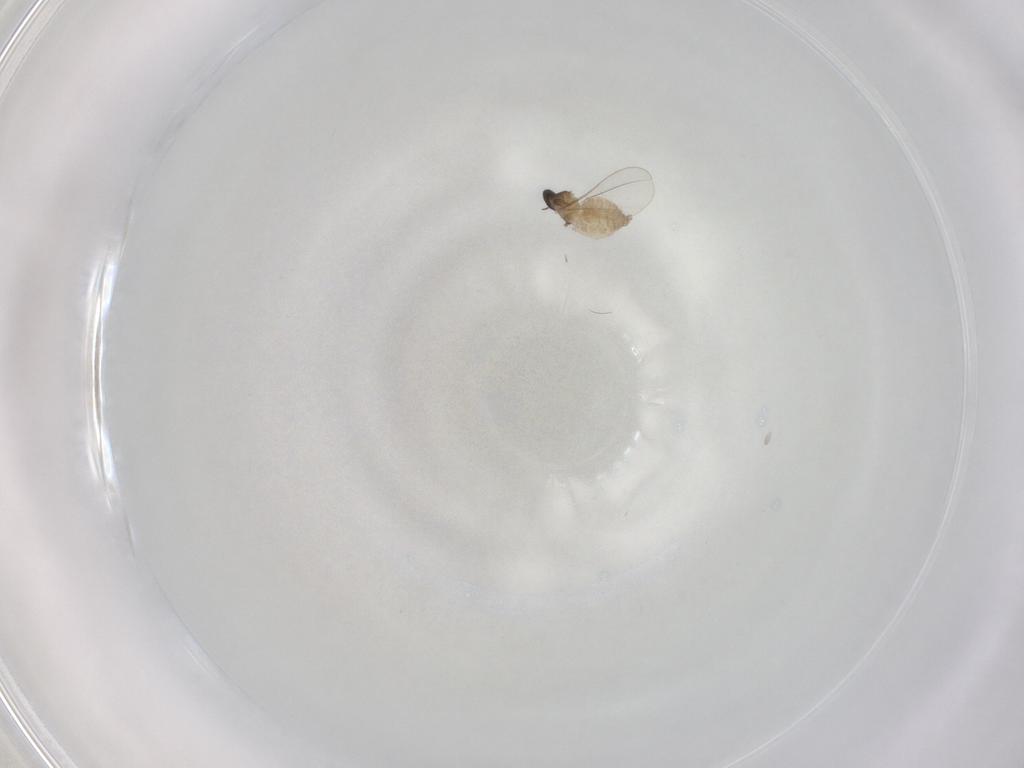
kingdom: Animalia
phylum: Arthropoda
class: Insecta
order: Diptera
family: Cecidomyiidae
